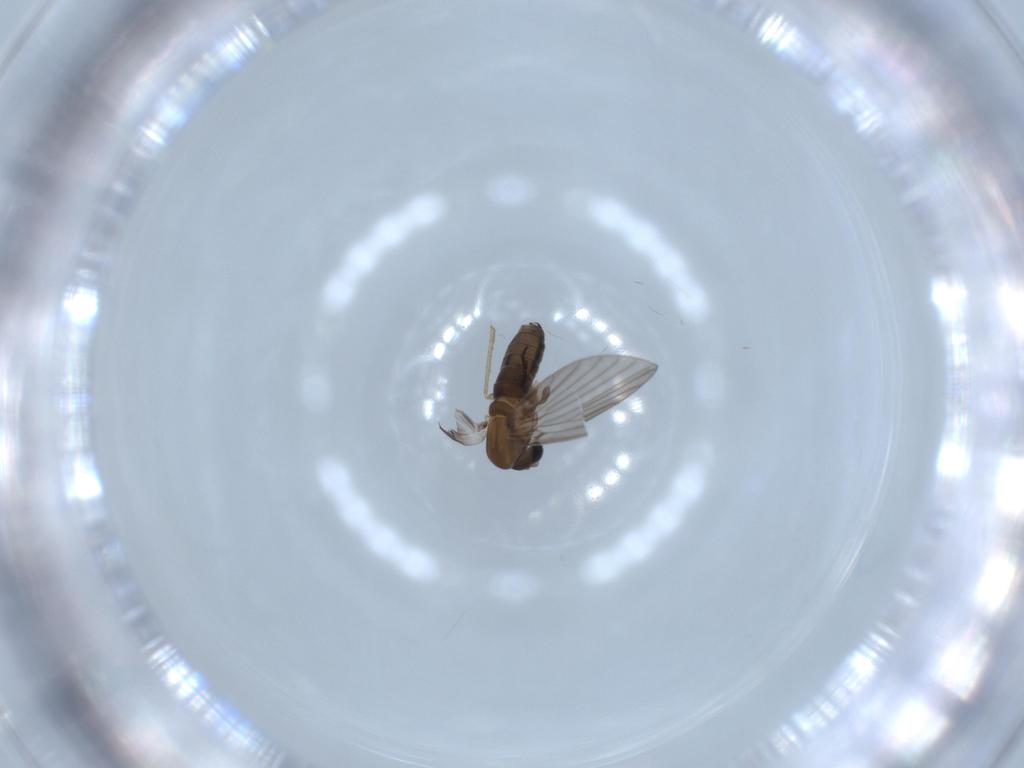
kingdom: Animalia
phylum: Arthropoda
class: Insecta
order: Diptera
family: Psychodidae
